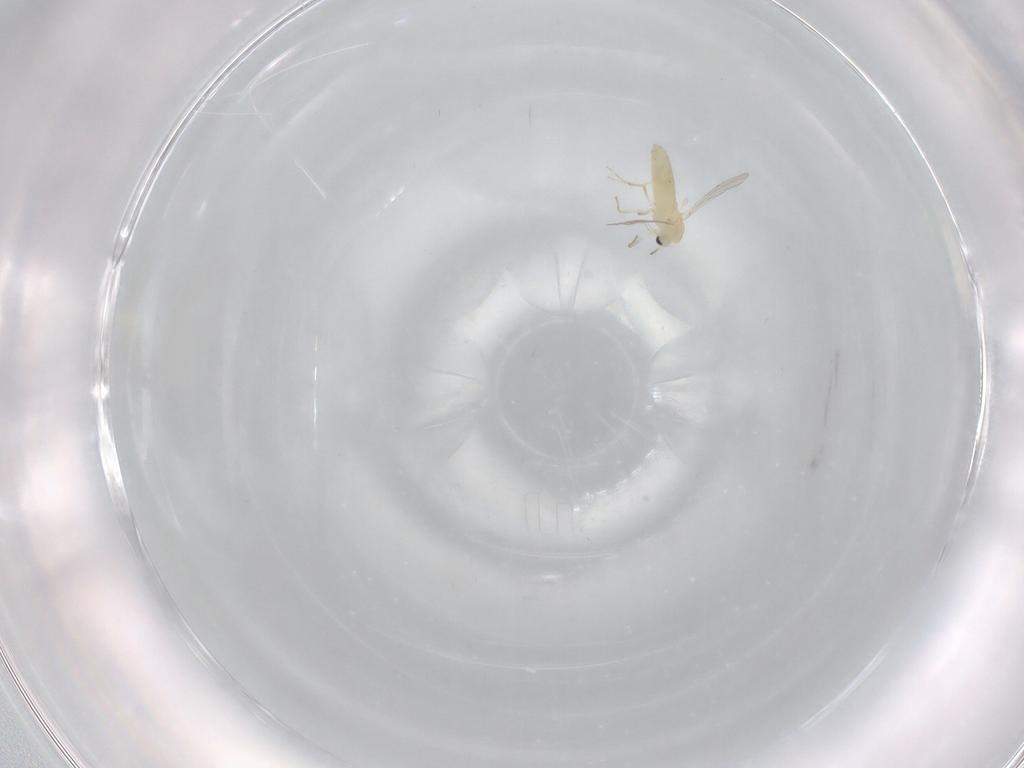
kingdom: Animalia
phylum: Arthropoda
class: Insecta
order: Diptera
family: Chironomidae
